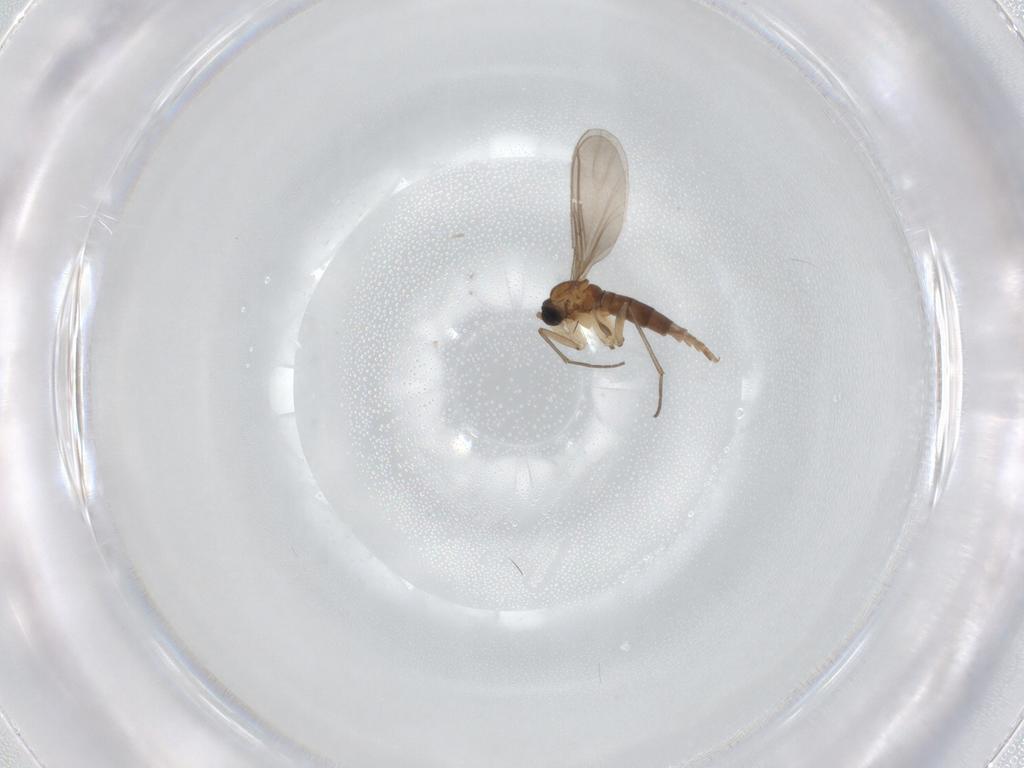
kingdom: Animalia
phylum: Arthropoda
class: Insecta
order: Diptera
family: Sciaridae
